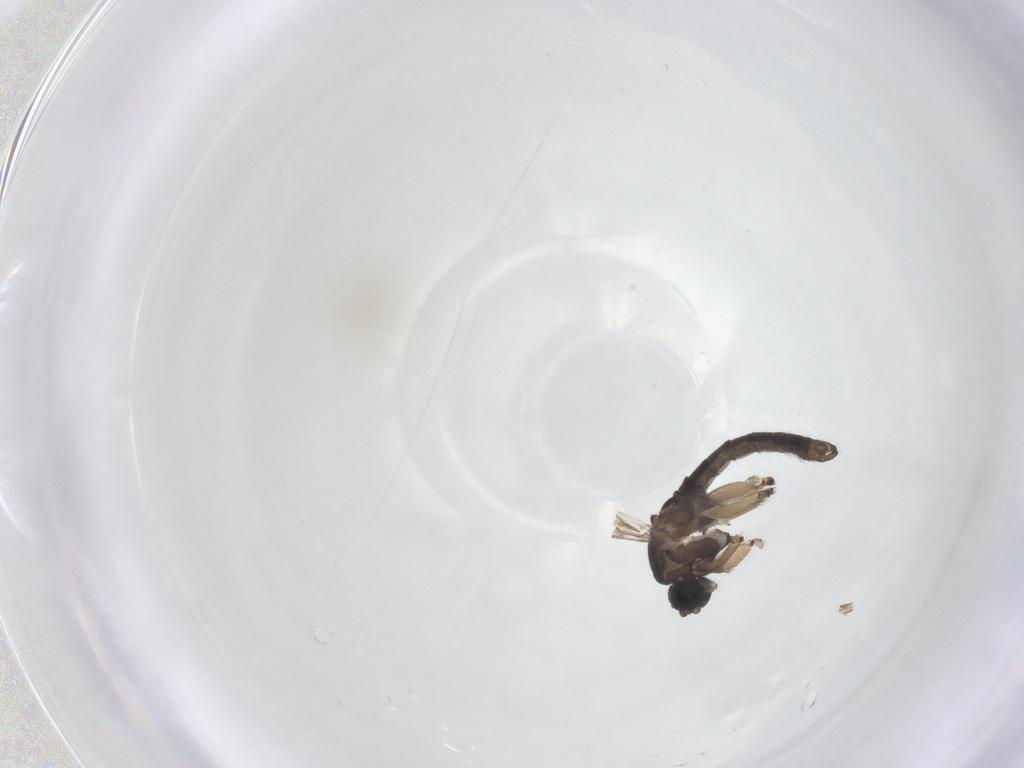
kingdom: Animalia
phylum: Arthropoda
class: Insecta
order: Diptera
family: Sciaridae
